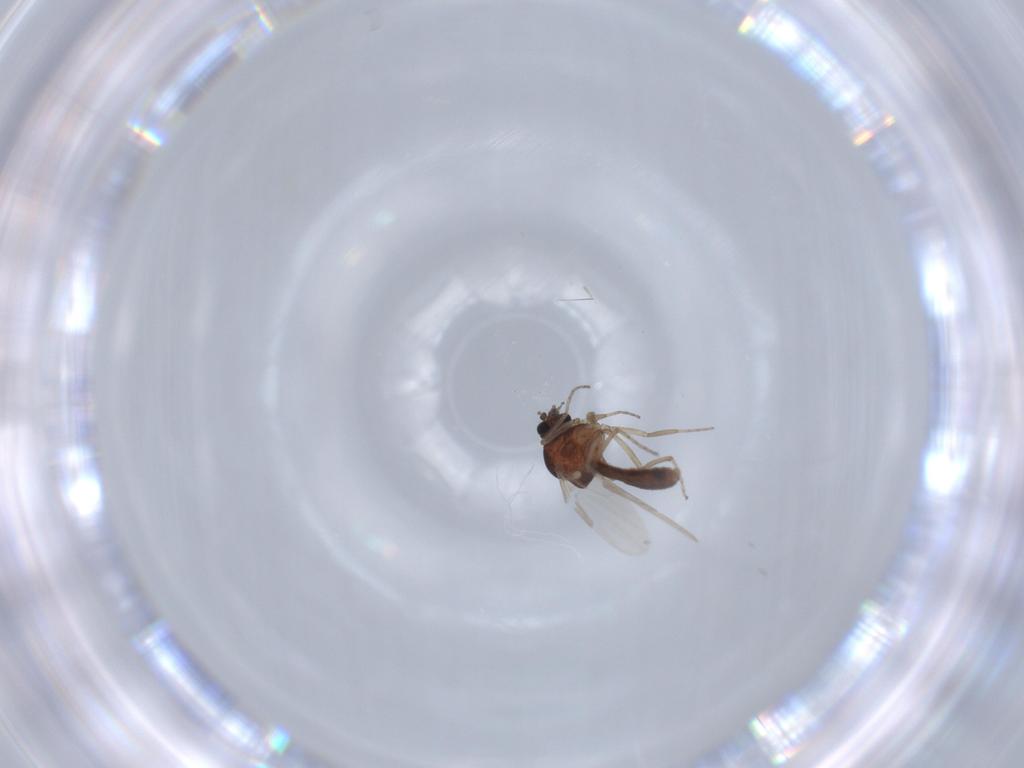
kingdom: Animalia
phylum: Arthropoda
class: Insecta
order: Diptera
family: Ceratopogonidae
